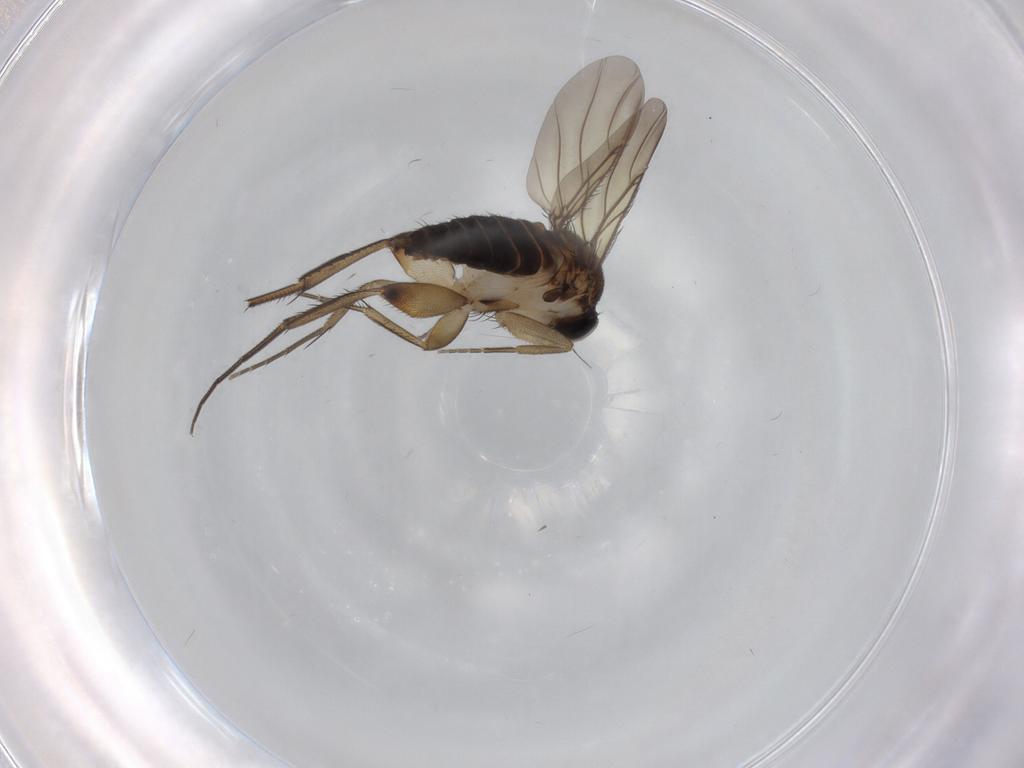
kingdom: Animalia
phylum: Arthropoda
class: Insecta
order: Diptera
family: Phoridae
